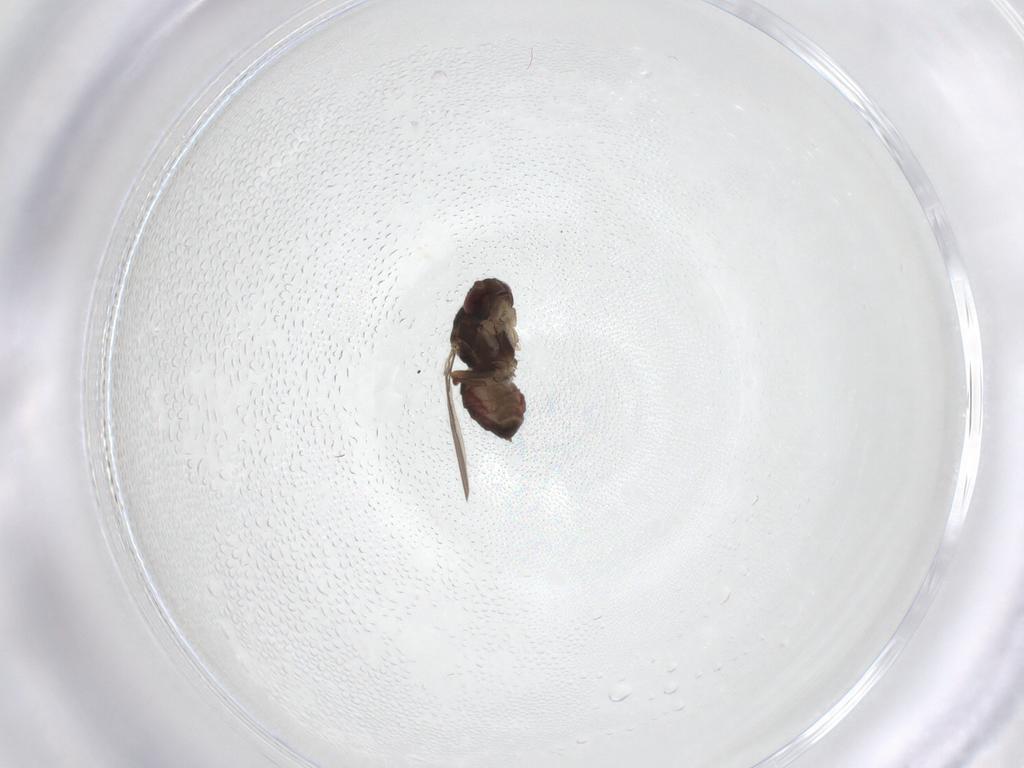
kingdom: Animalia
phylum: Arthropoda
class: Insecta
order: Diptera
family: Sphaeroceridae
